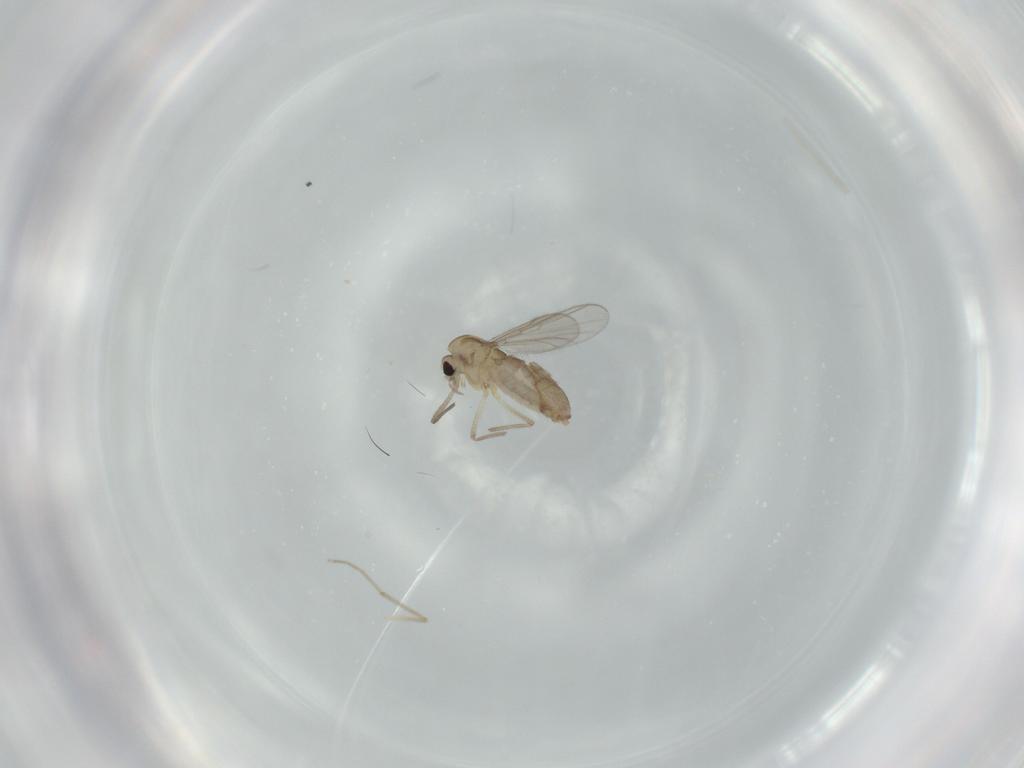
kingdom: Animalia
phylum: Arthropoda
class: Insecta
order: Diptera
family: Chironomidae
